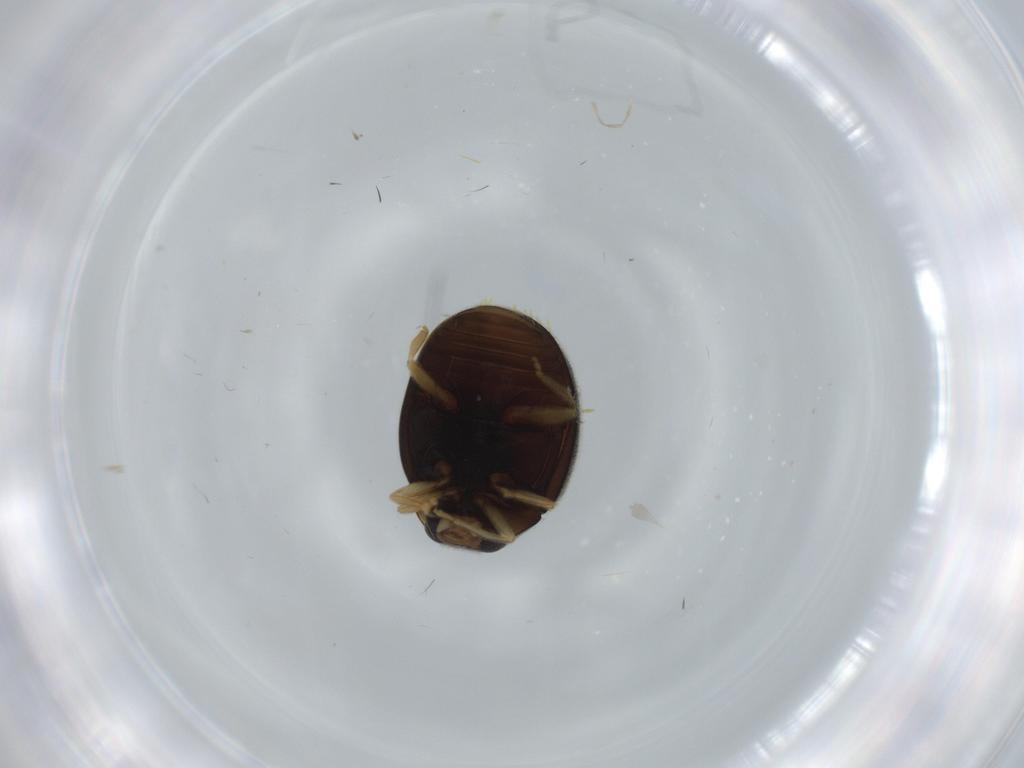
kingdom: Animalia
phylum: Arthropoda
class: Insecta
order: Coleoptera
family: Coccinellidae
